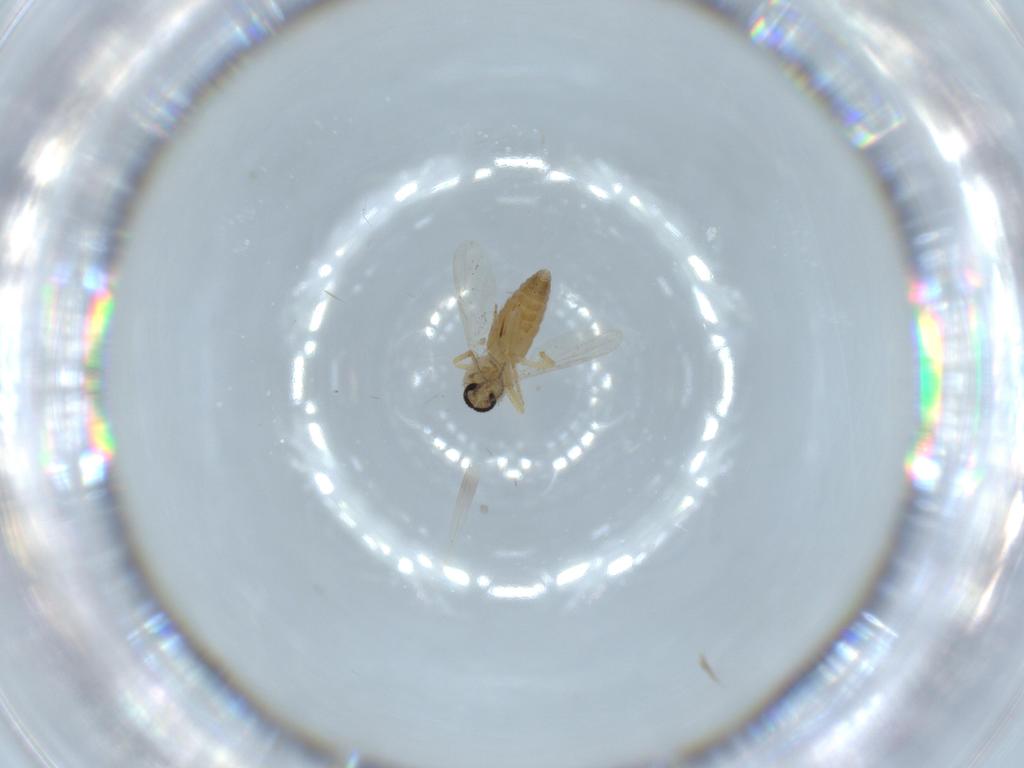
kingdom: Animalia
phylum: Arthropoda
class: Insecta
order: Diptera
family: Ceratopogonidae
